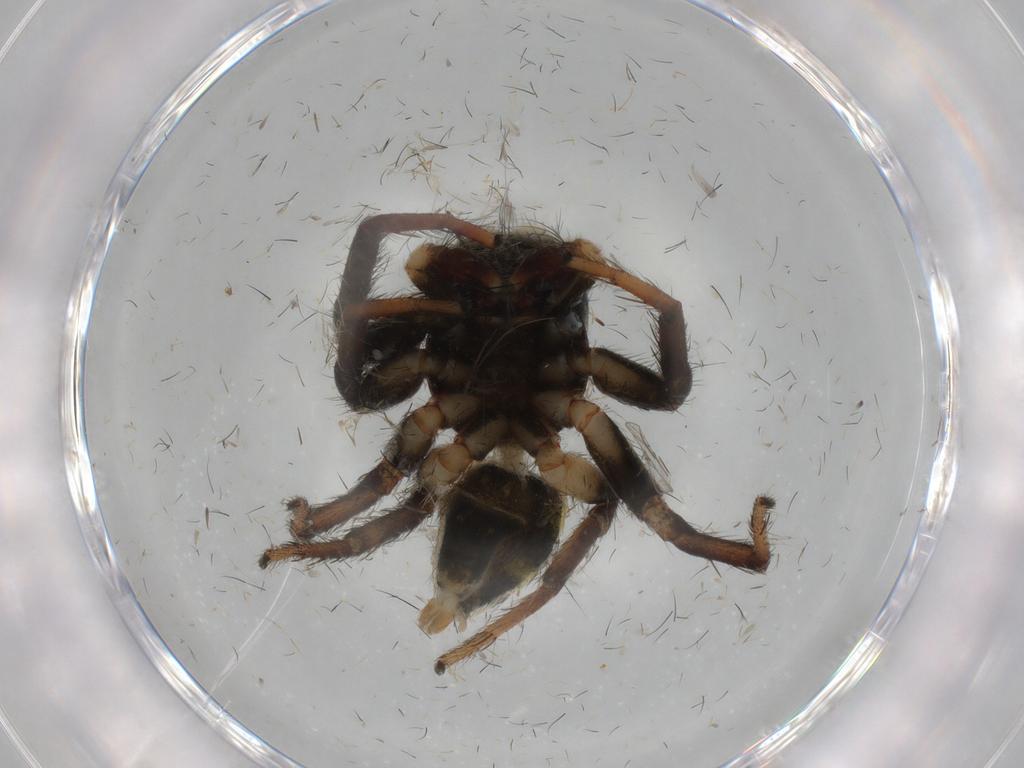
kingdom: Animalia
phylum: Arthropoda
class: Arachnida
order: Araneae
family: Salticidae
